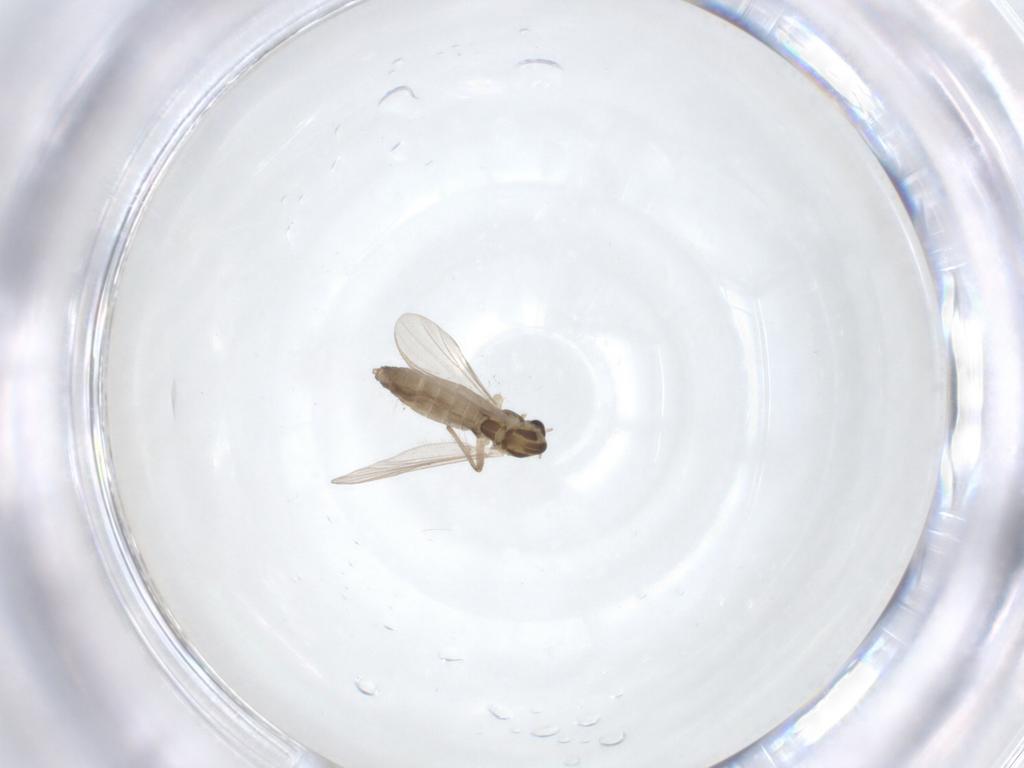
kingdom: Animalia
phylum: Arthropoda
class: Insecta
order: Diptera
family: Chironomidae
